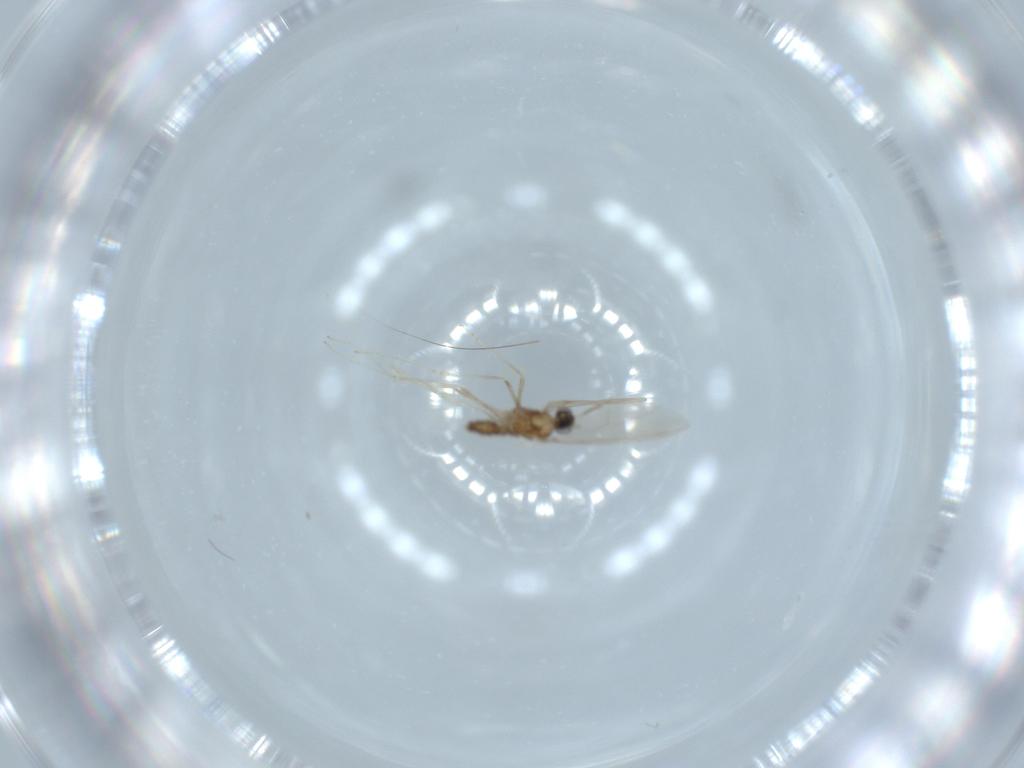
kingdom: Animalia
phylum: Arthropoda
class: Insecta
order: Diptera
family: Cecidomyiidae
